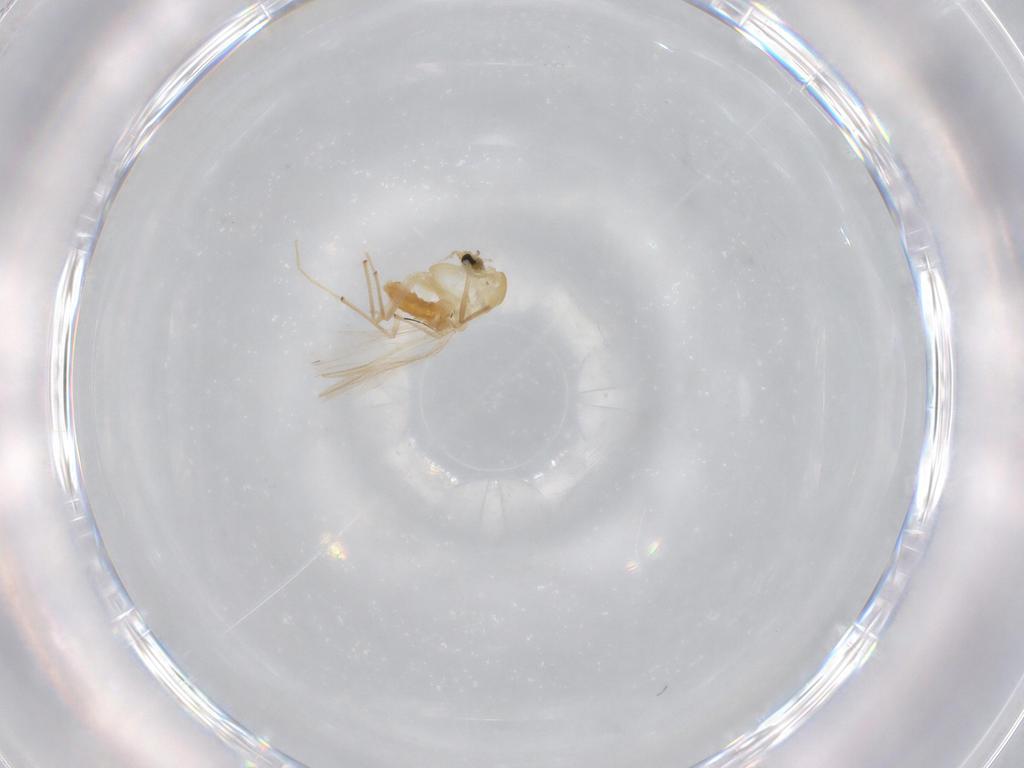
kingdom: Animalia
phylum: Arthropoda
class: Insecta
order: Diptera
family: Chironomidae
